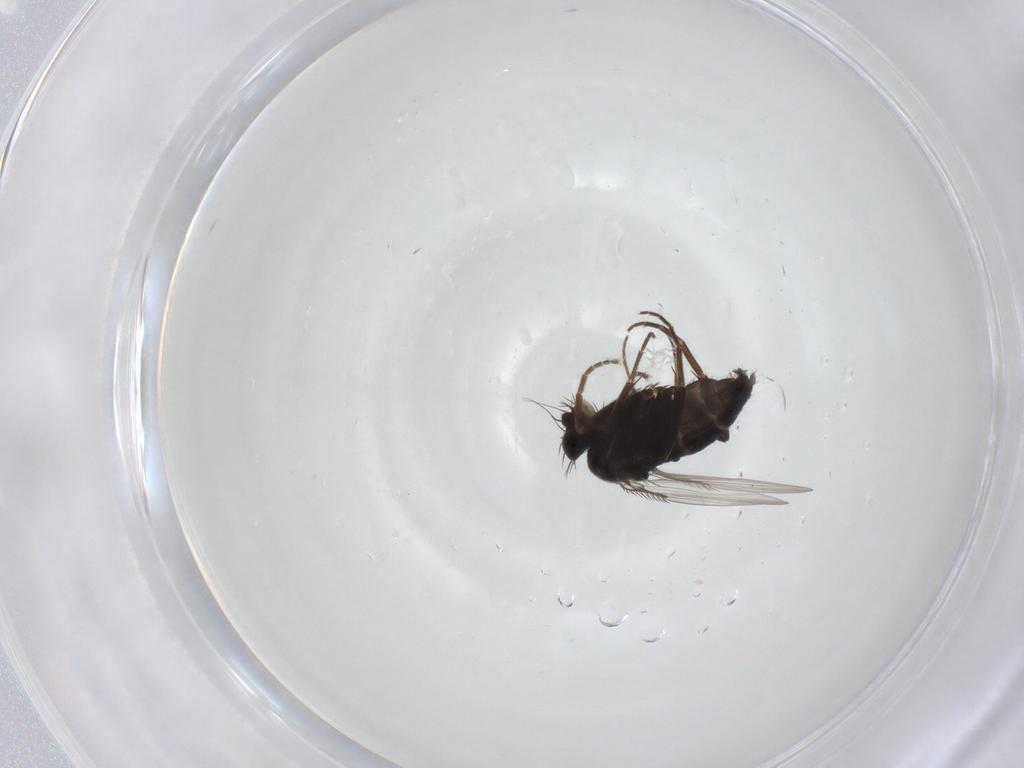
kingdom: Animalia
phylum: Arthropoda
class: Insecta
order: Diptera
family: Phoridae
